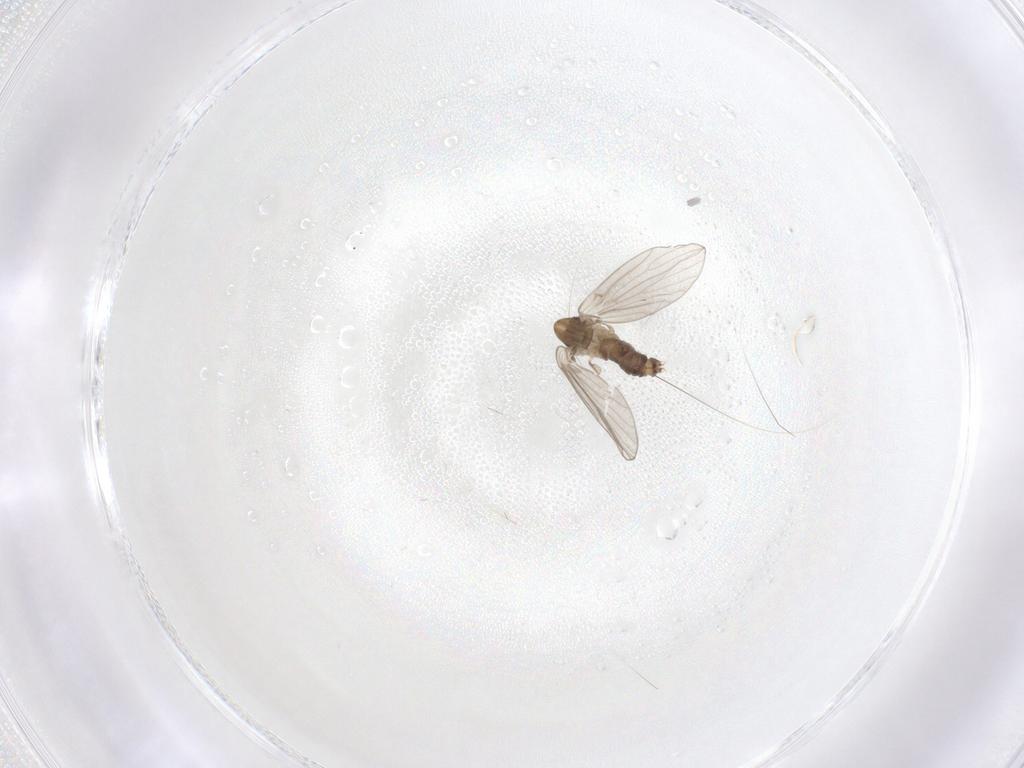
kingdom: Animalia
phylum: Arthropoda
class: Insecta
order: Diptera
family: Psychodidae
